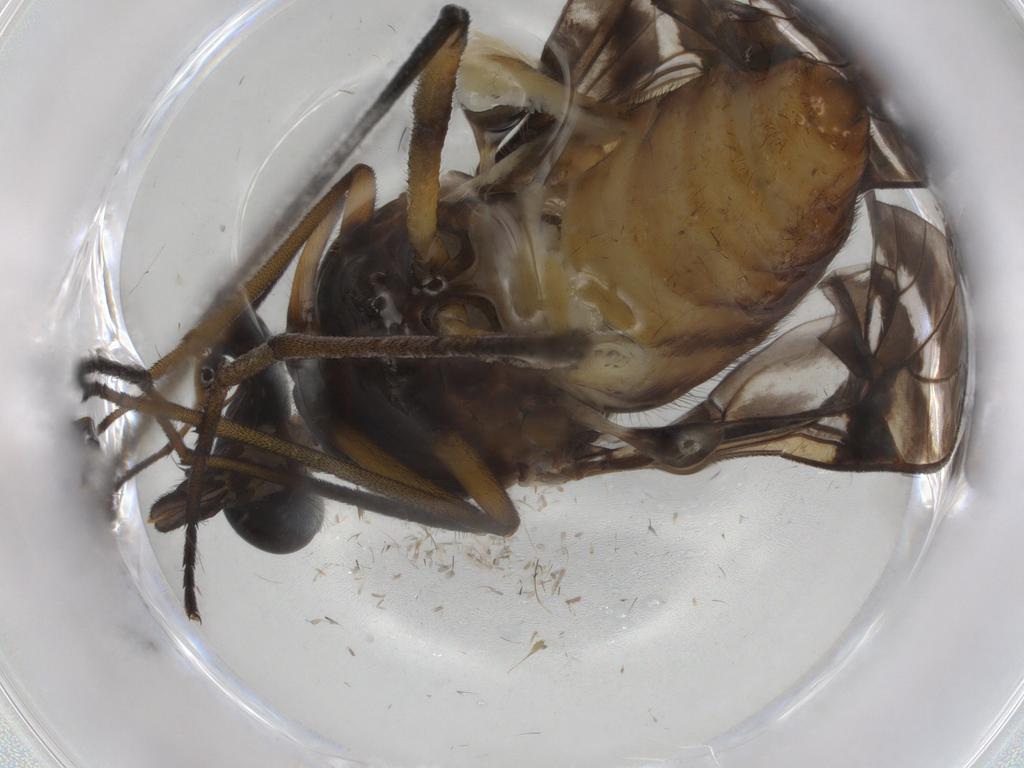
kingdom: Animalia
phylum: Arthropoda
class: Insecta
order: Diptera
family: Athericidae
